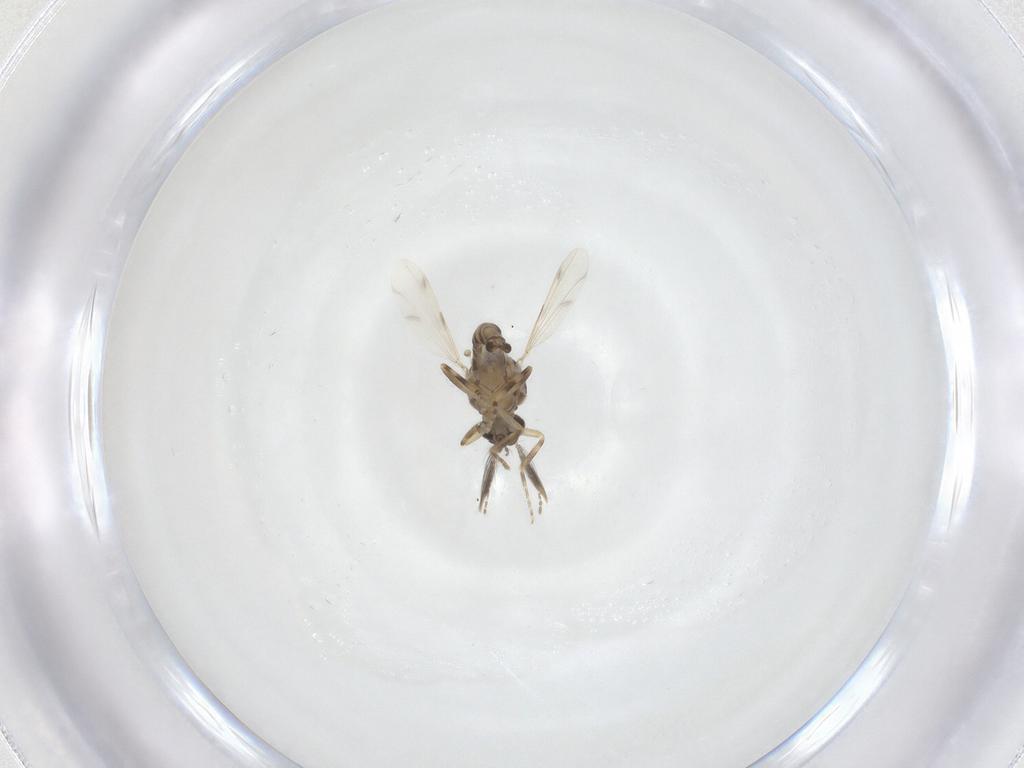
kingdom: Animalia
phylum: Arthropoda
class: Insecta
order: Diptera
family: Ceratopogonidae
